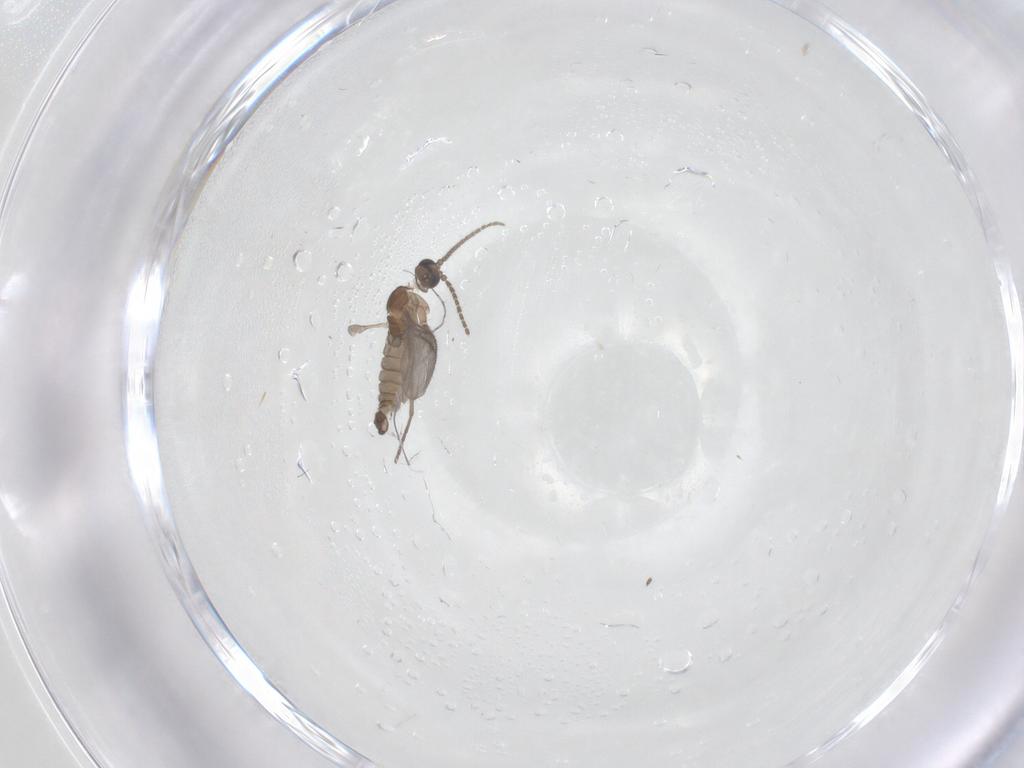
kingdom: Animalia
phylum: Arthropoda
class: Insecta
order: Diptera
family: Sciaridae
